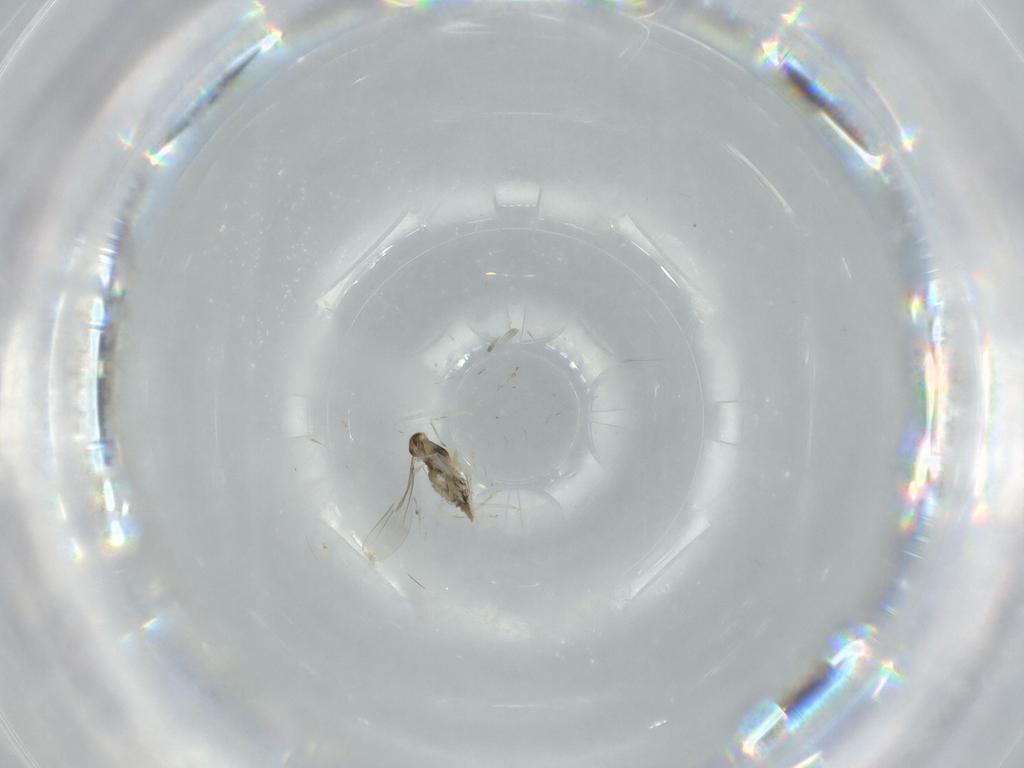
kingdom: Animalia
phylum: Arthropoda
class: Insecta
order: Diptera
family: Cecidomyiidae
